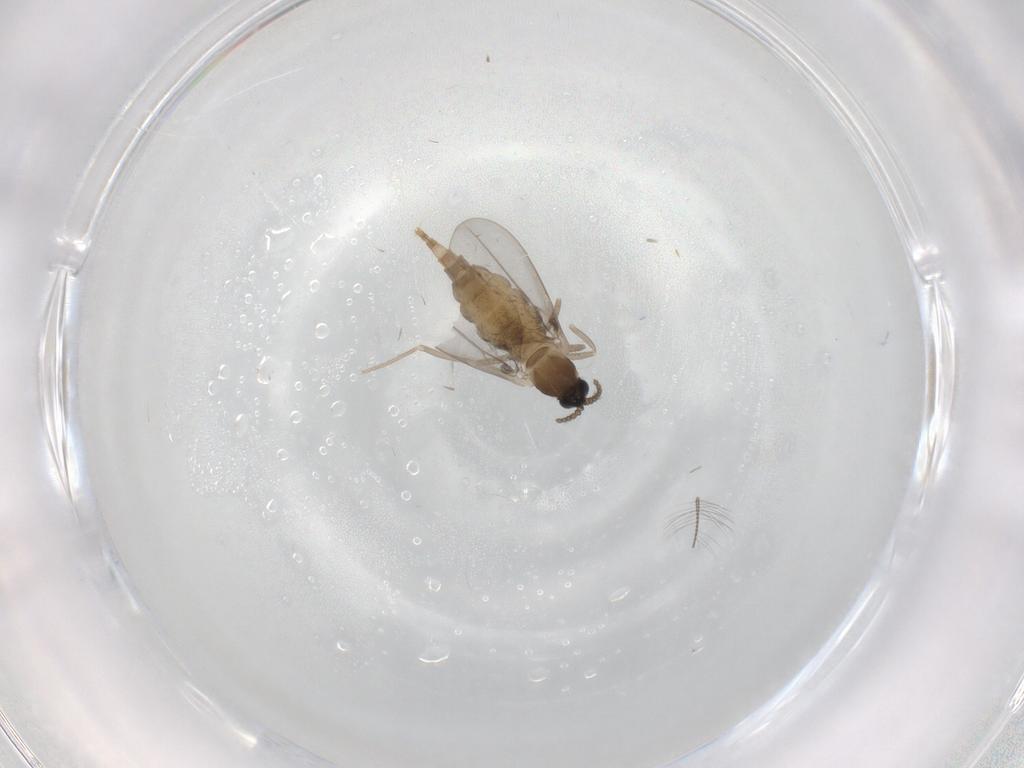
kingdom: Animalia
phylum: Arthropoda
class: Insecta
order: Diptera
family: Cecidomyiidae
